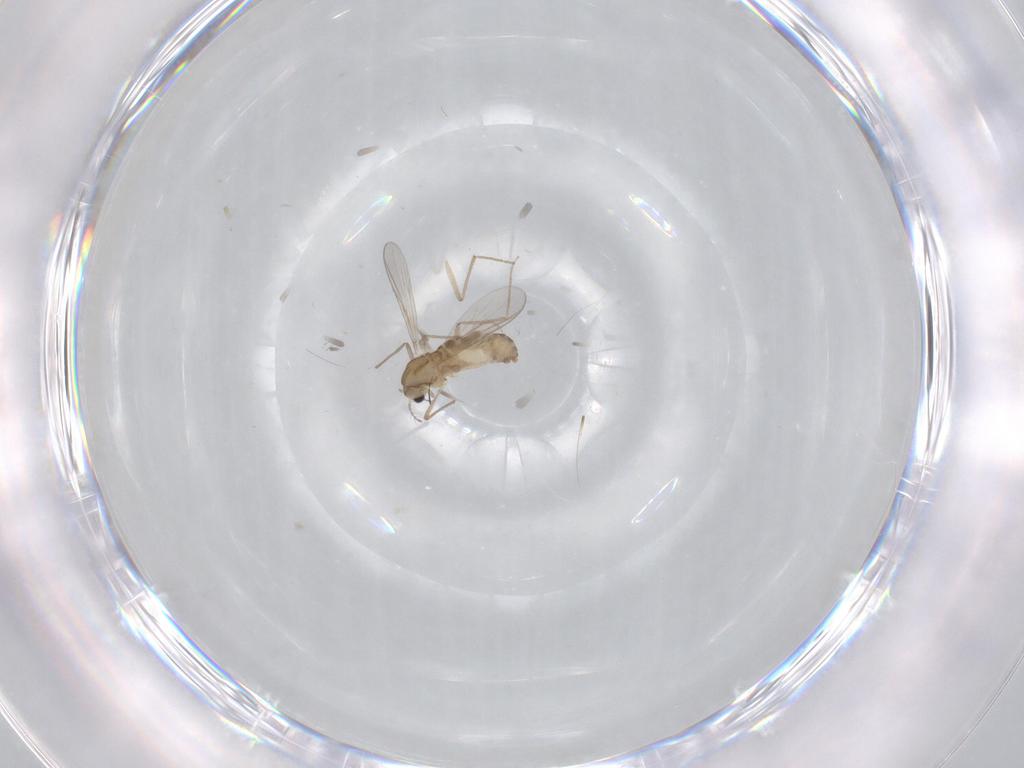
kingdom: Animalia
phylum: Arthropoda
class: Insecta
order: Diptera
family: Chironomidae
